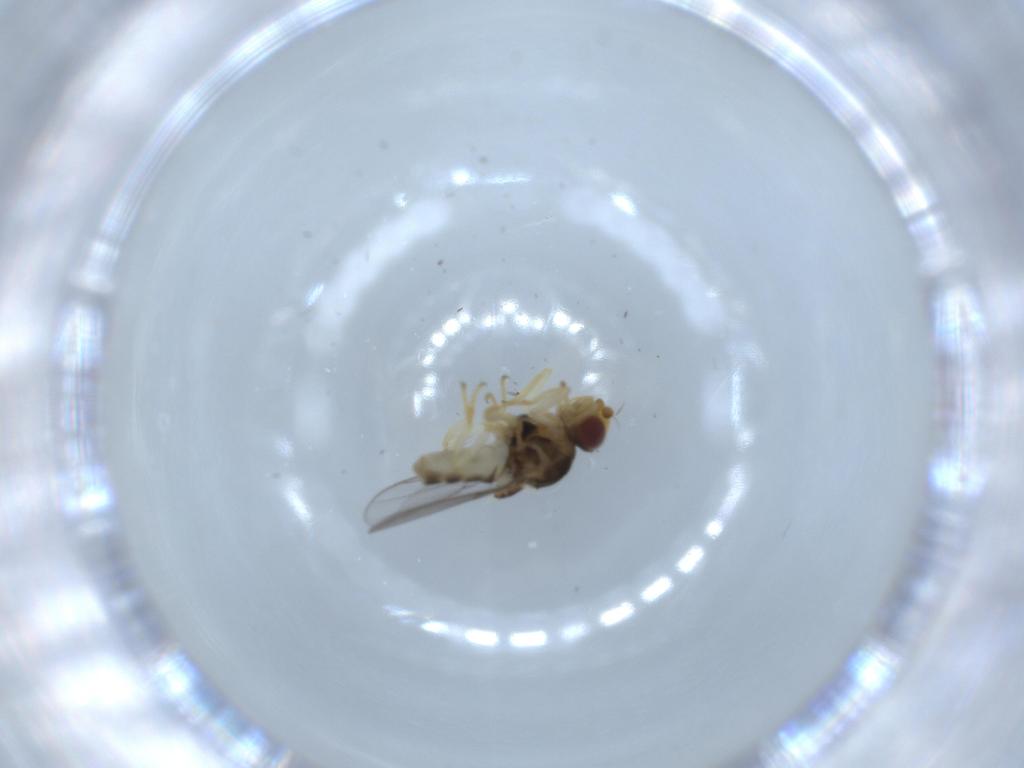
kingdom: Animalia
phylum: Arthropoda
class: Insecta
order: Diptera
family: Chloropidae
